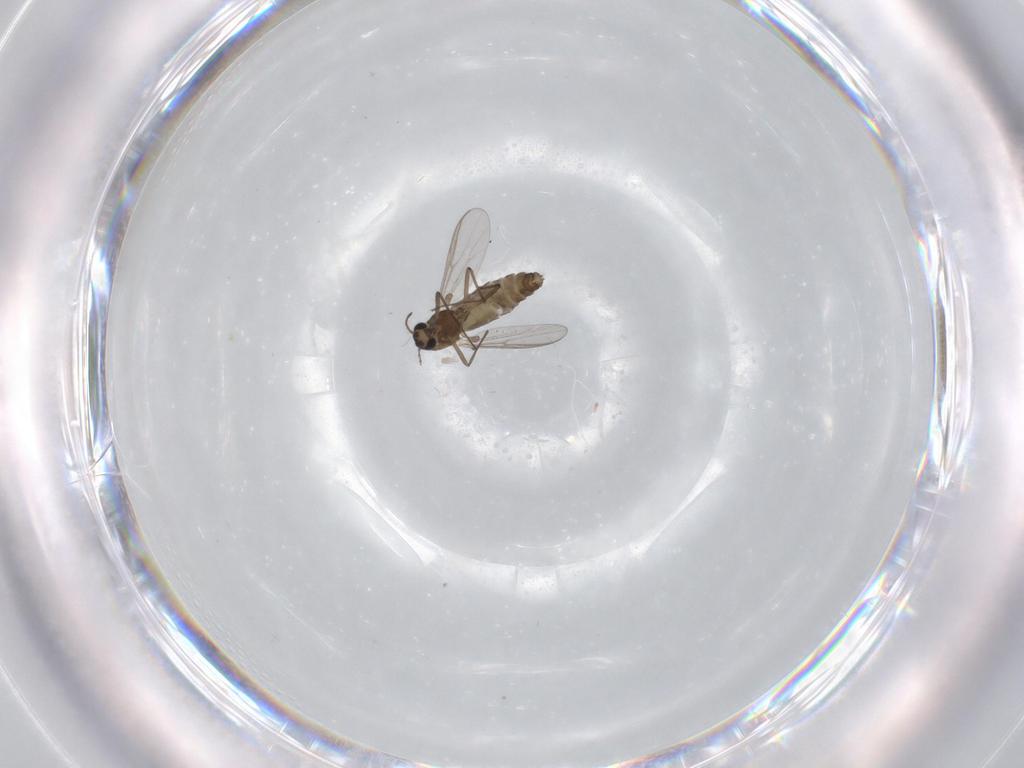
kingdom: Animalia
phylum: Arthropoda
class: Insecta
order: Diptera
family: Chironomidae
